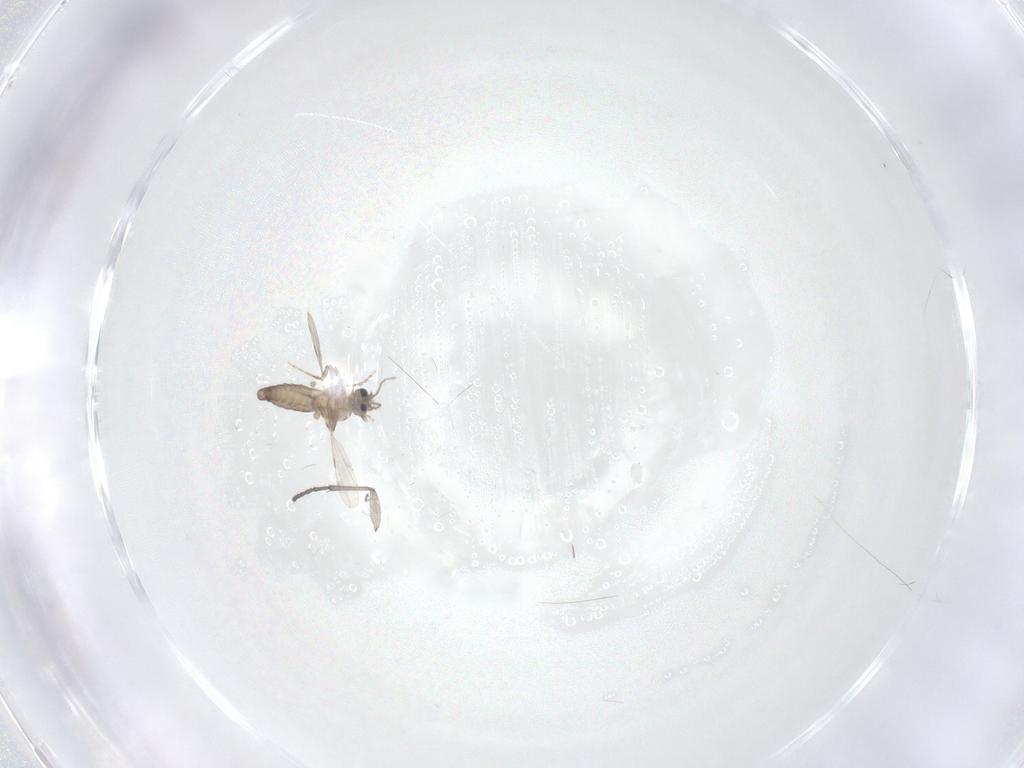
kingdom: Animalia
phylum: Arthropoda
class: Insecta
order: Diptera
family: Ceratopogonidae
